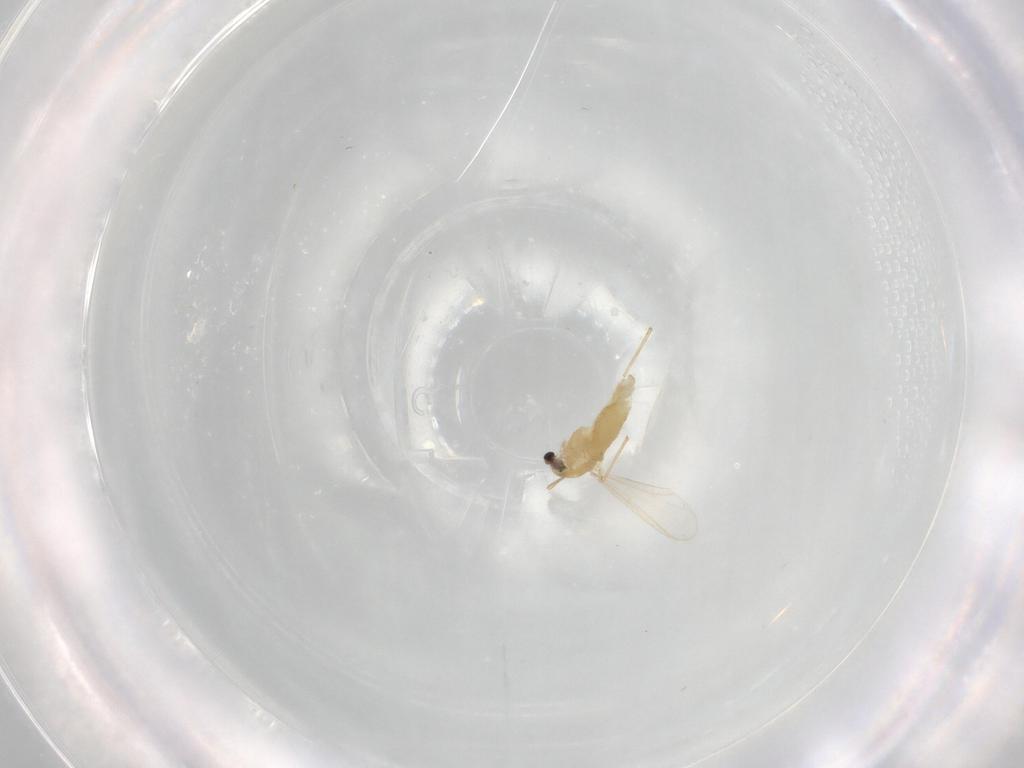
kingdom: Animalia
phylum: Arthropoda
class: Insecta
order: Diptera
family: Chironomidae
